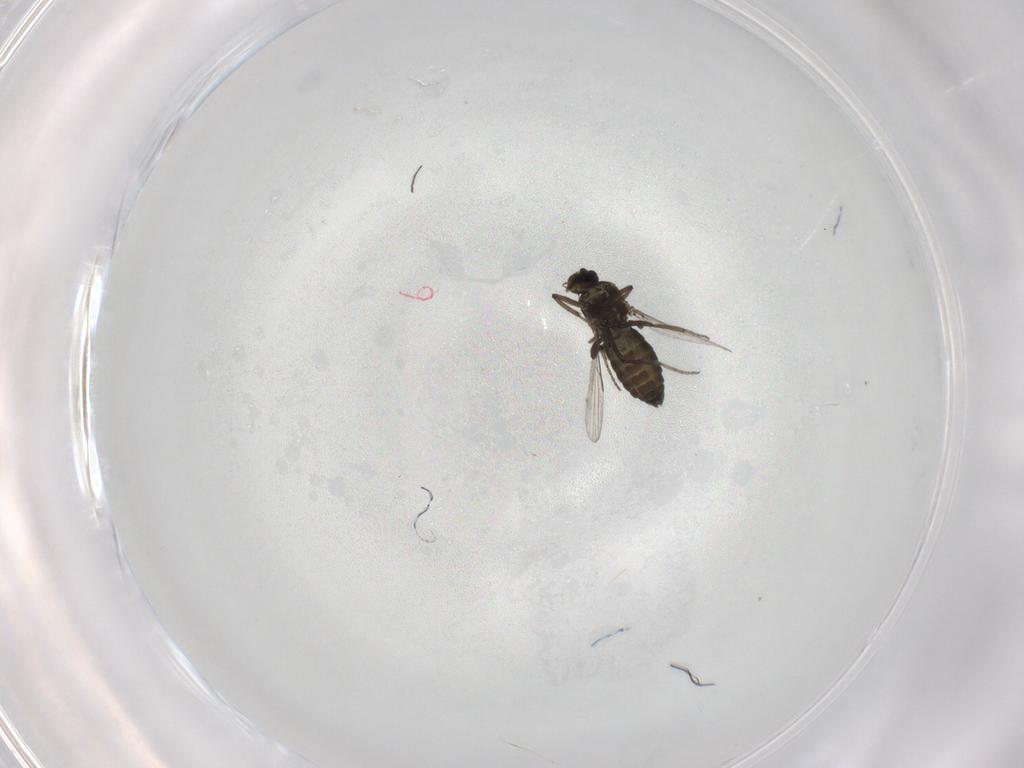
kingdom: Animalia
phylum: Arthropoda
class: Insecta
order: Diptera
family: Ceratopogonidae
